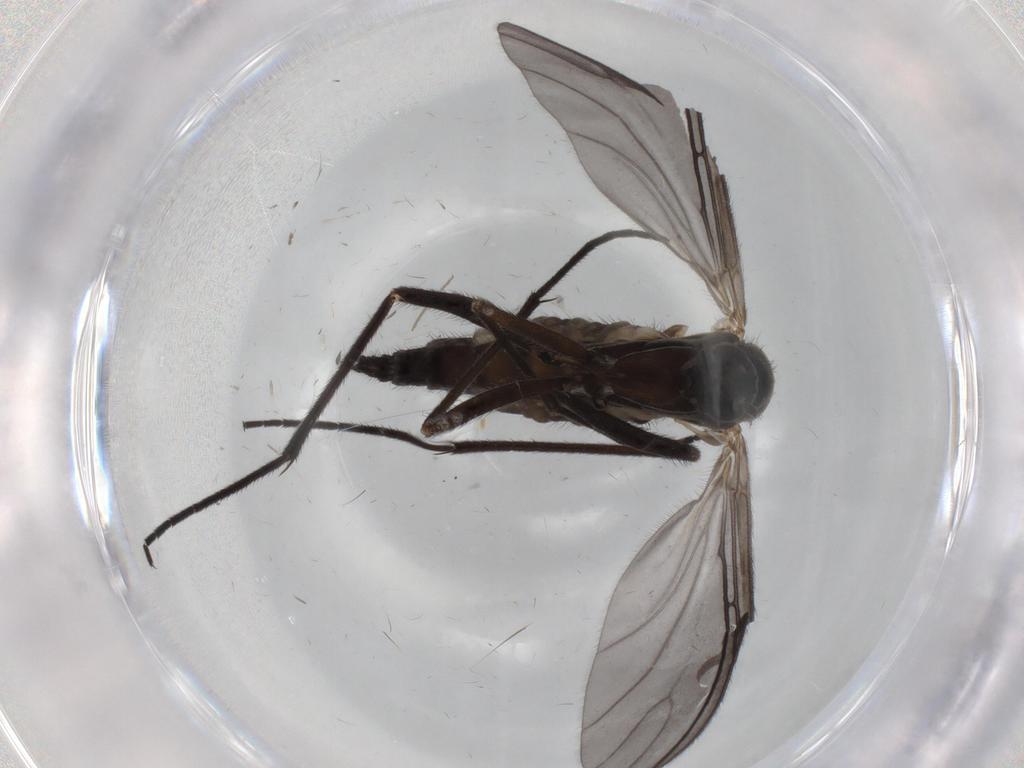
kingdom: Animalia
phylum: Arthropoda
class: Insecta
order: Diptera
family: Sciaridae
